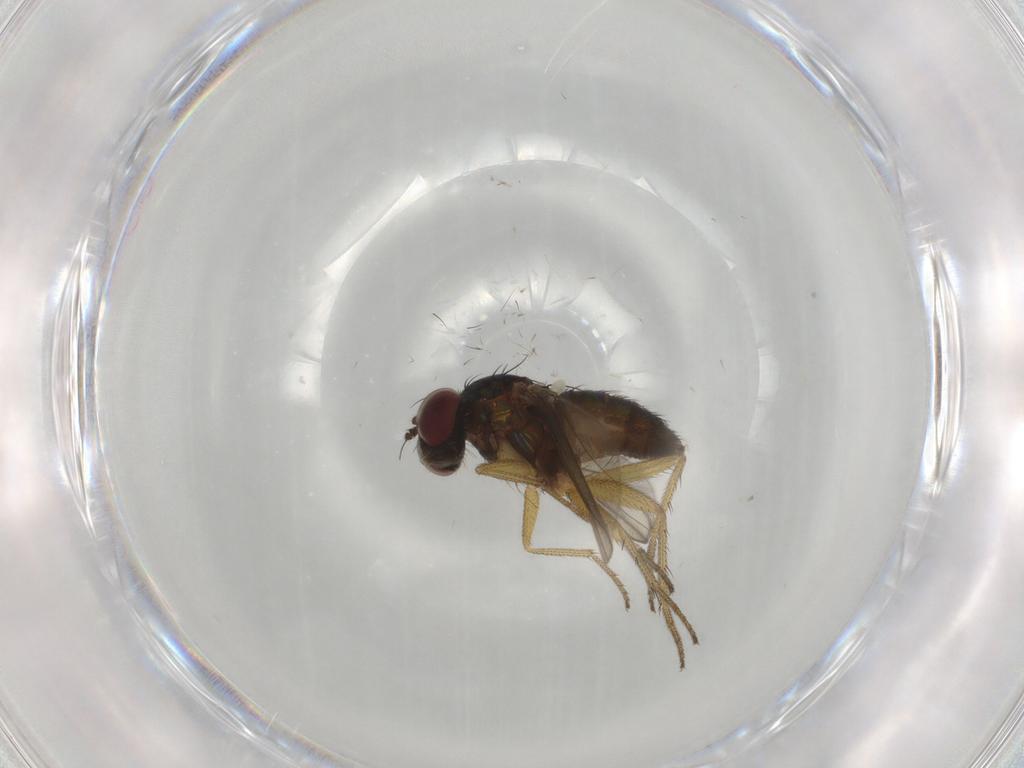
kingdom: Animalia
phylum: Arthropoda
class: Insecta
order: Diptera
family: Dolichopodidae
